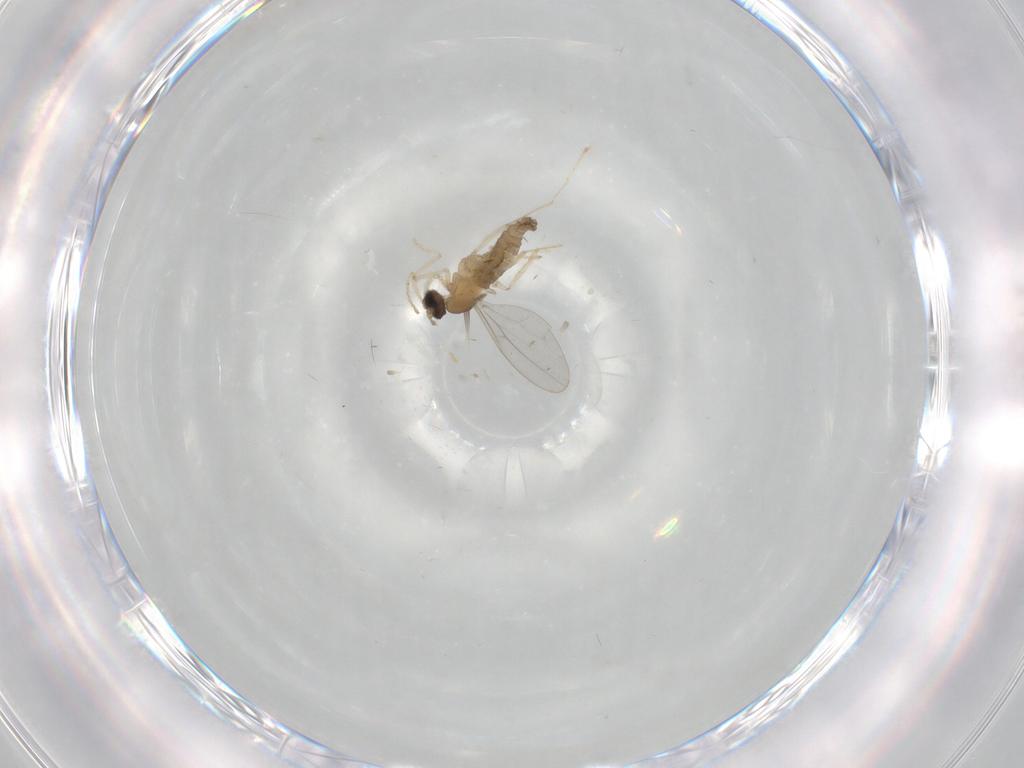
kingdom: Animalia
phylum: Arthropoda
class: Insecta
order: Diptera
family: Cecidomyiidae
